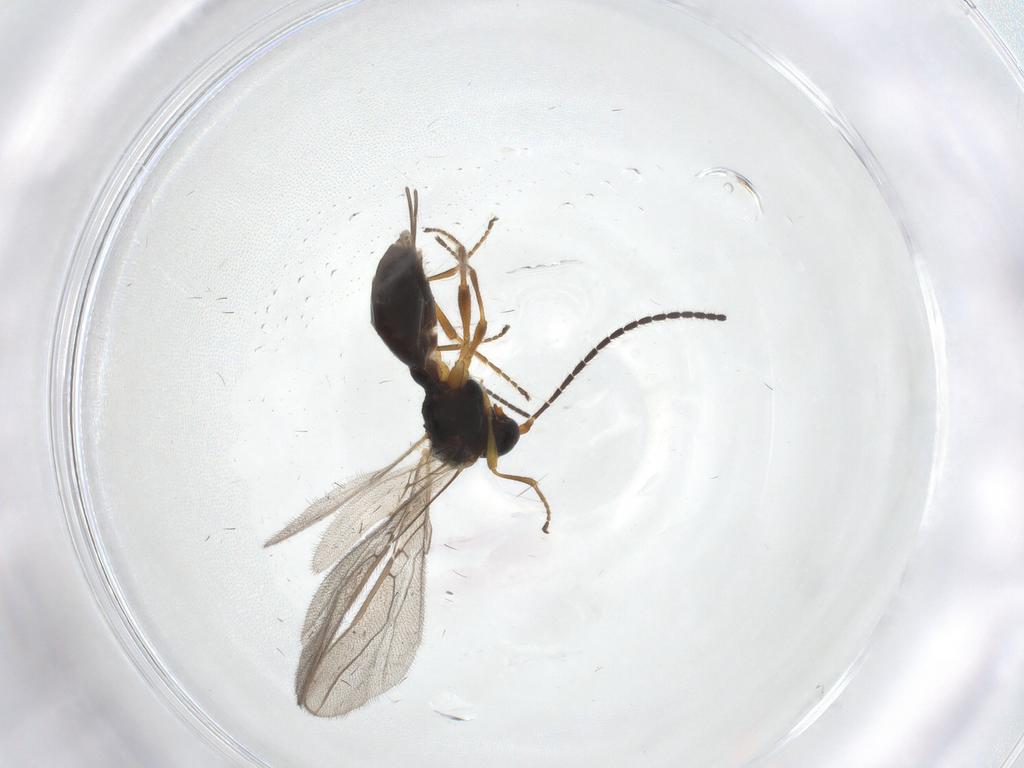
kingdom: Animalia
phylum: Arthropoda
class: Insecta
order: Hymenoptera
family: Braconidae
